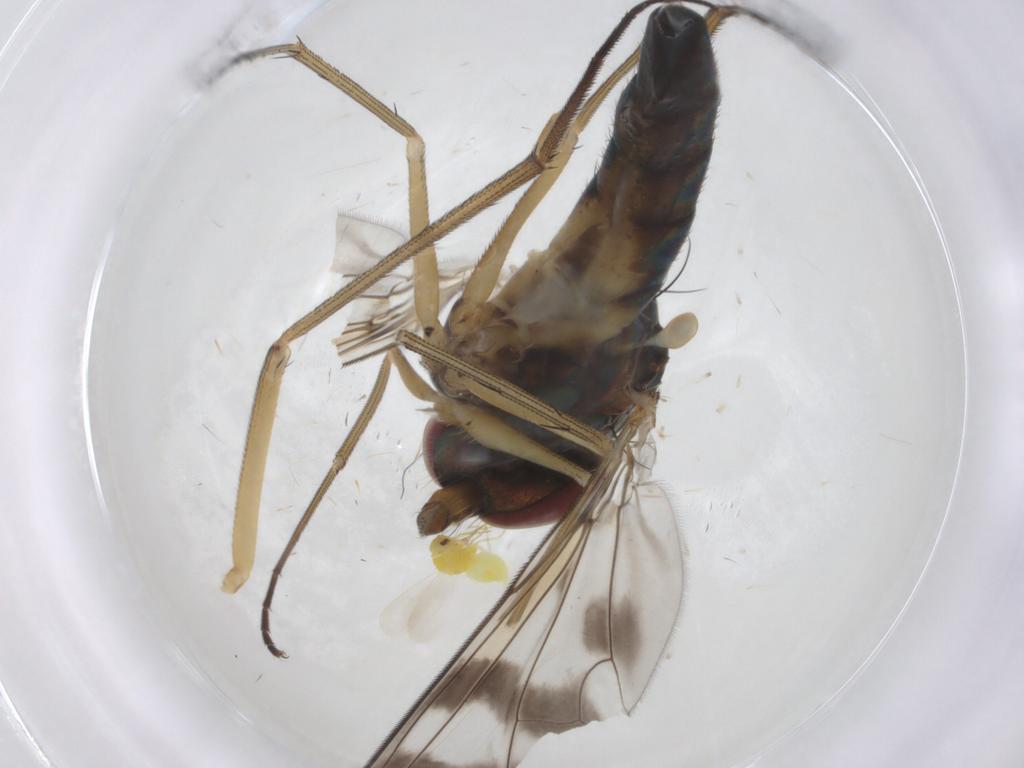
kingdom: Animalia
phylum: Arthropoda
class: Insecta
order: Diptera
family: Dolichopodidae
